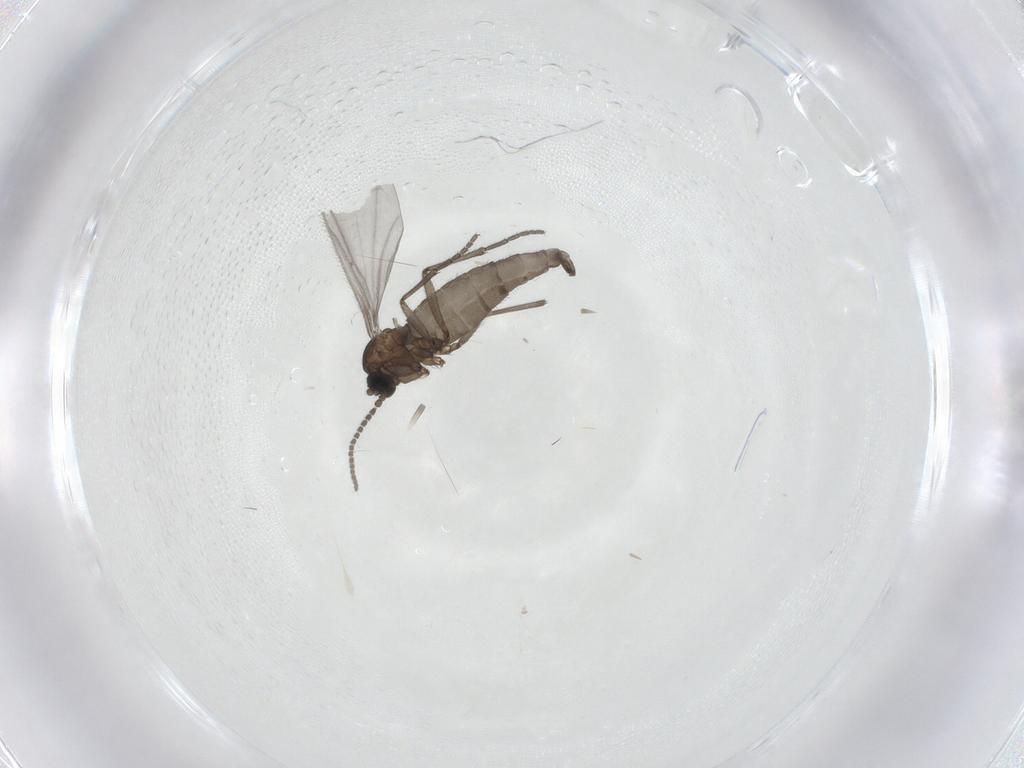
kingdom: Animalia
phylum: Arthropoda
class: Insecta
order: Diptera
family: Sciaridae
